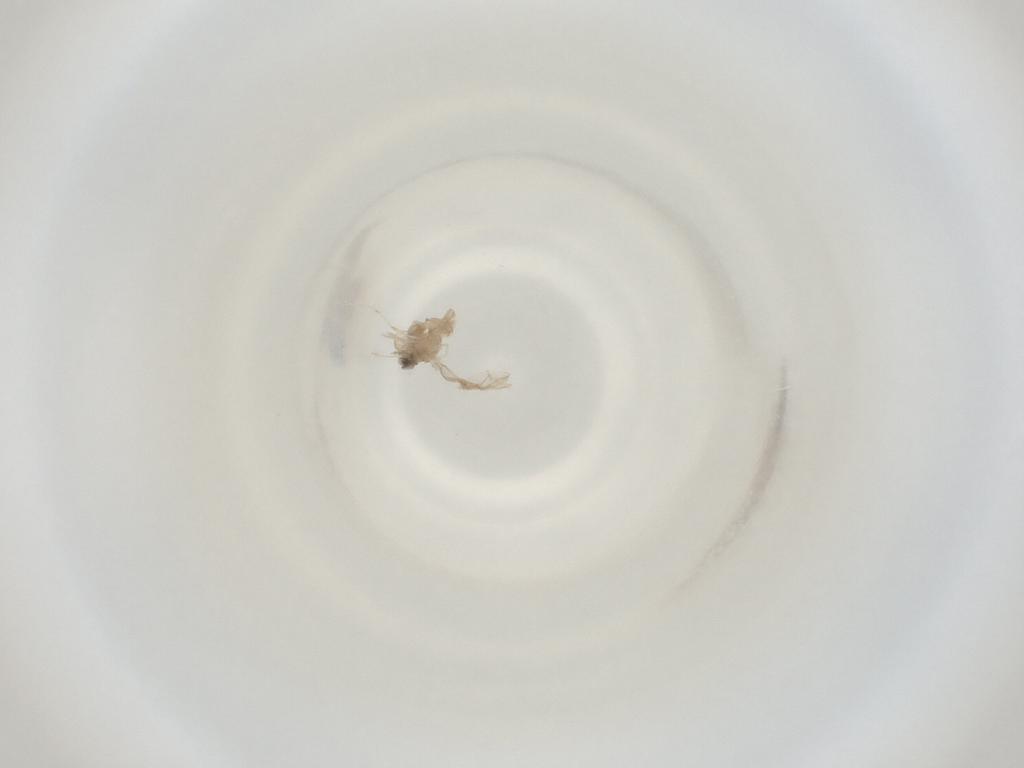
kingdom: Animalia
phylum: Arthropoda
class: Insecta
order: Diptera
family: Cecidomyiidae
